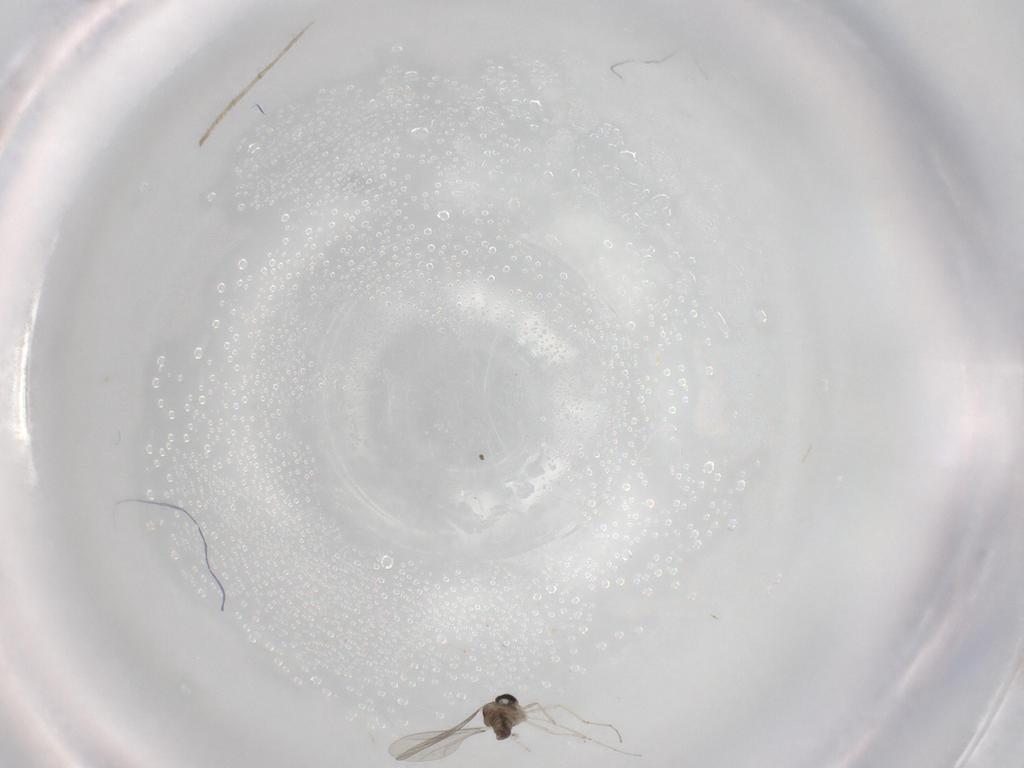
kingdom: Animalia
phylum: Arthropoda
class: Insecta
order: Diptera
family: Cecidomyiidae
